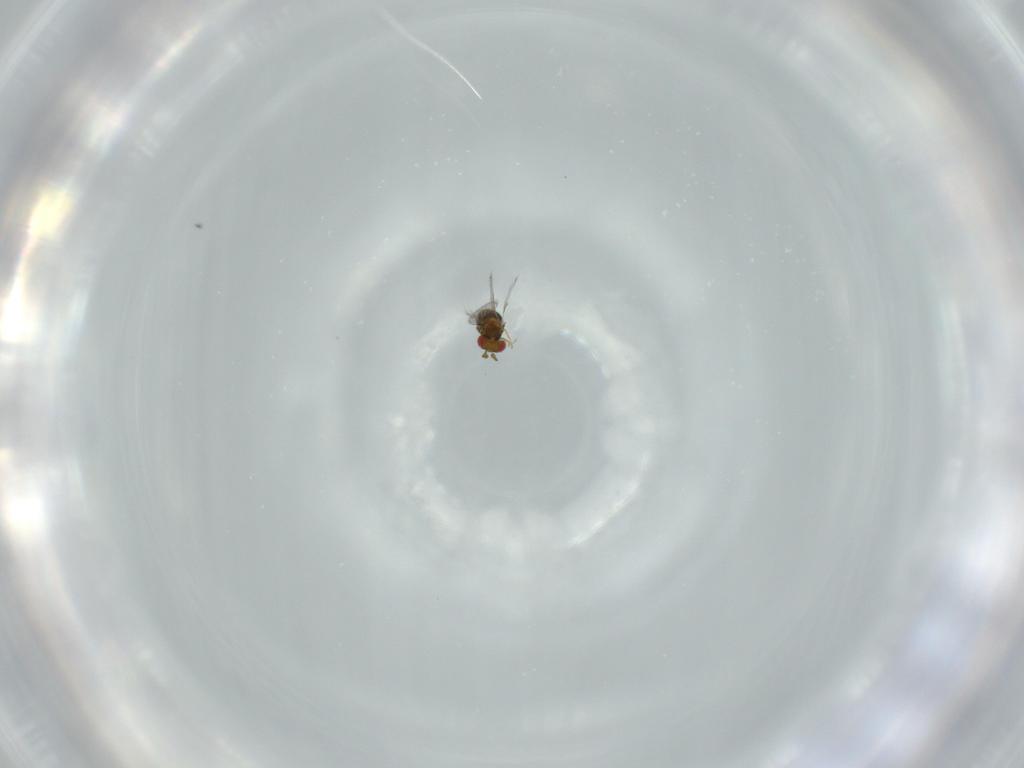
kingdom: Animalia
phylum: Arthropoda
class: Insecta
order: Hymenoptera
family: Trichogrammatidae
